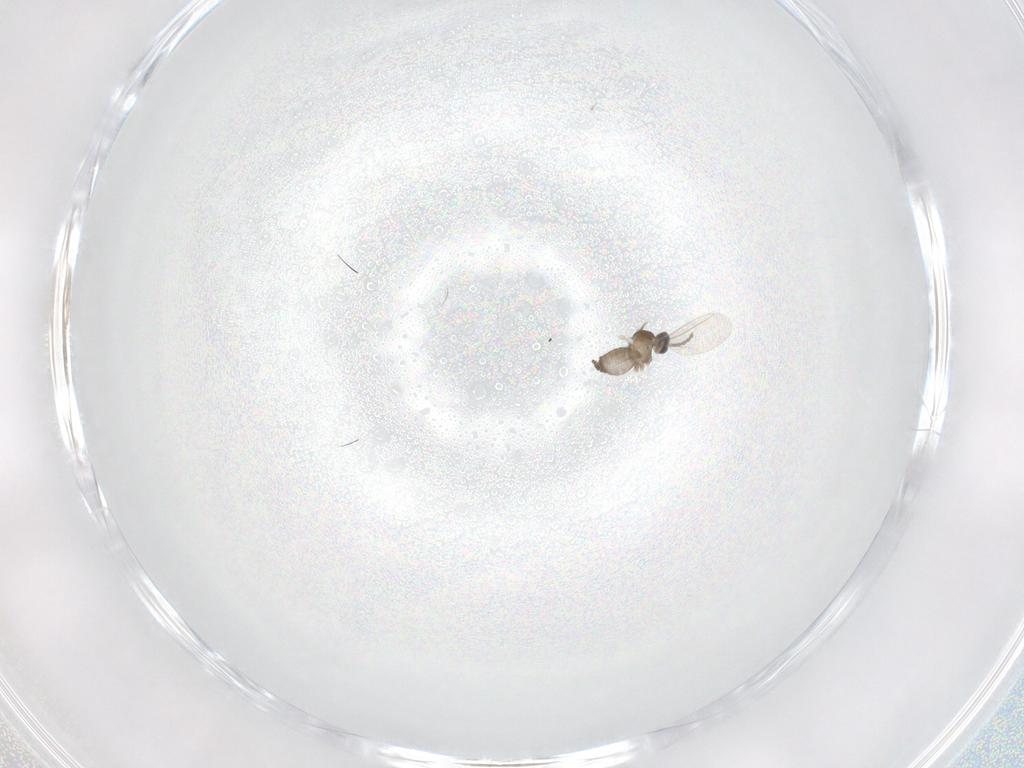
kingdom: Animalia
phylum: Arthropoda
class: Insecta
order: Diptera
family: Cecidomyiidae
